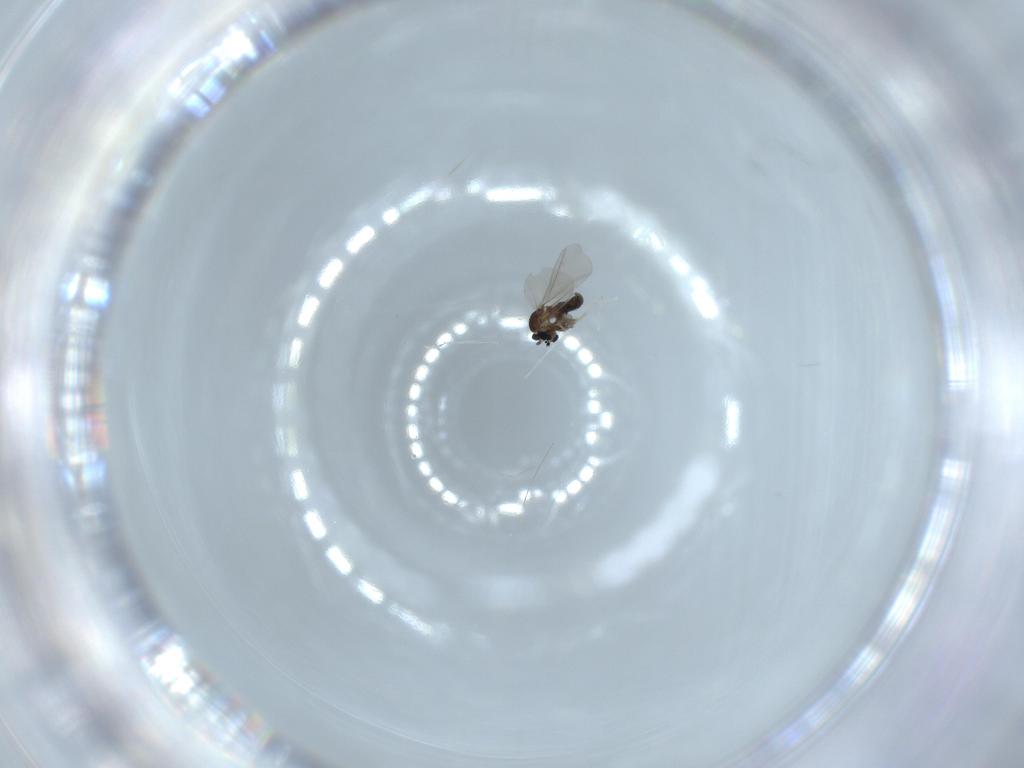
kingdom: Animalia
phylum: Arthropoda
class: Insecta
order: Diptera
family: Cecidomyiidae
